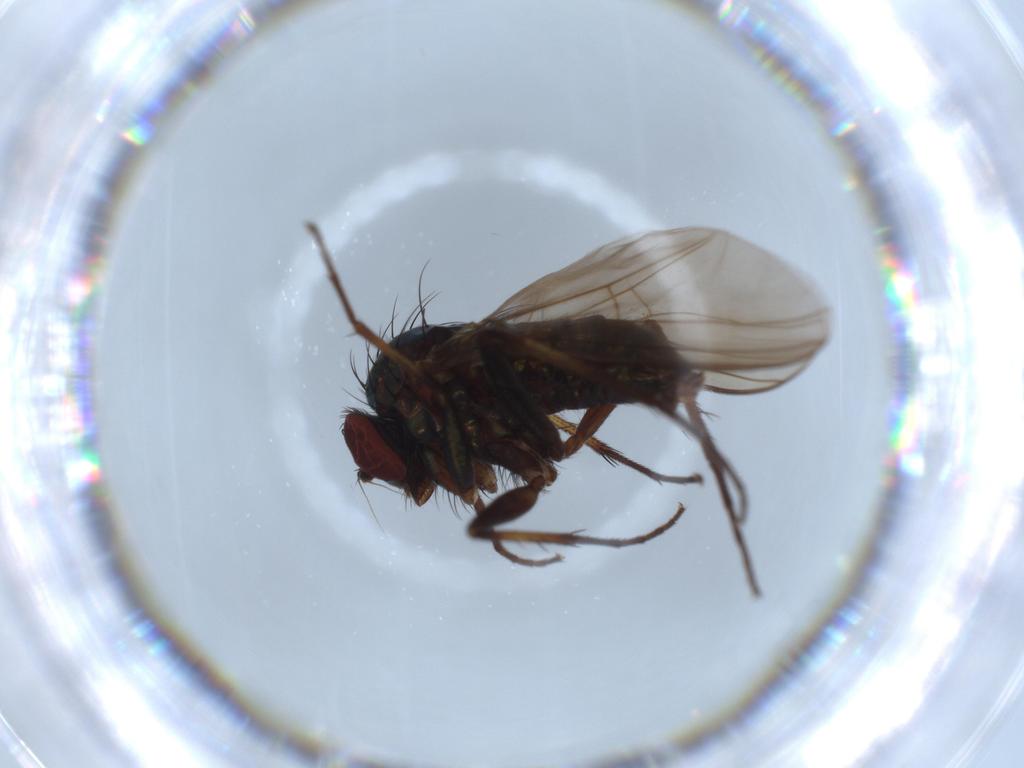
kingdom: Animalia
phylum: Arthropoda
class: Insecta
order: Diptera
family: Dolichopodidae
